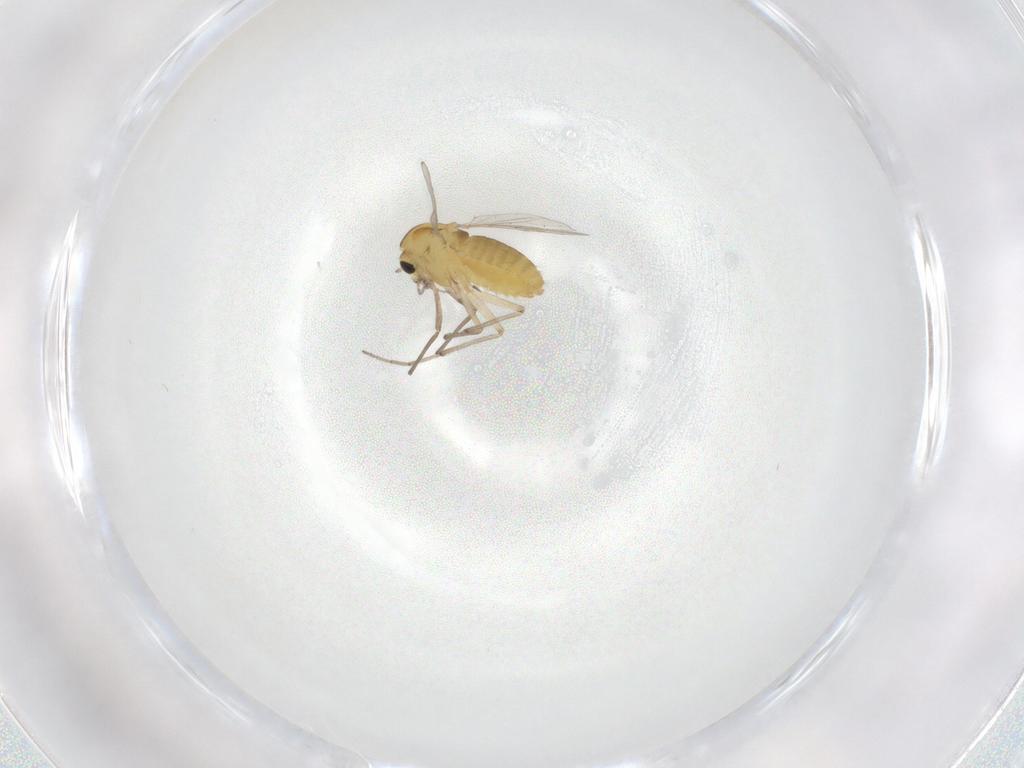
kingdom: Animalia
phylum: Arthropoda
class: Insecta
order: Diptera
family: Chironomidae
